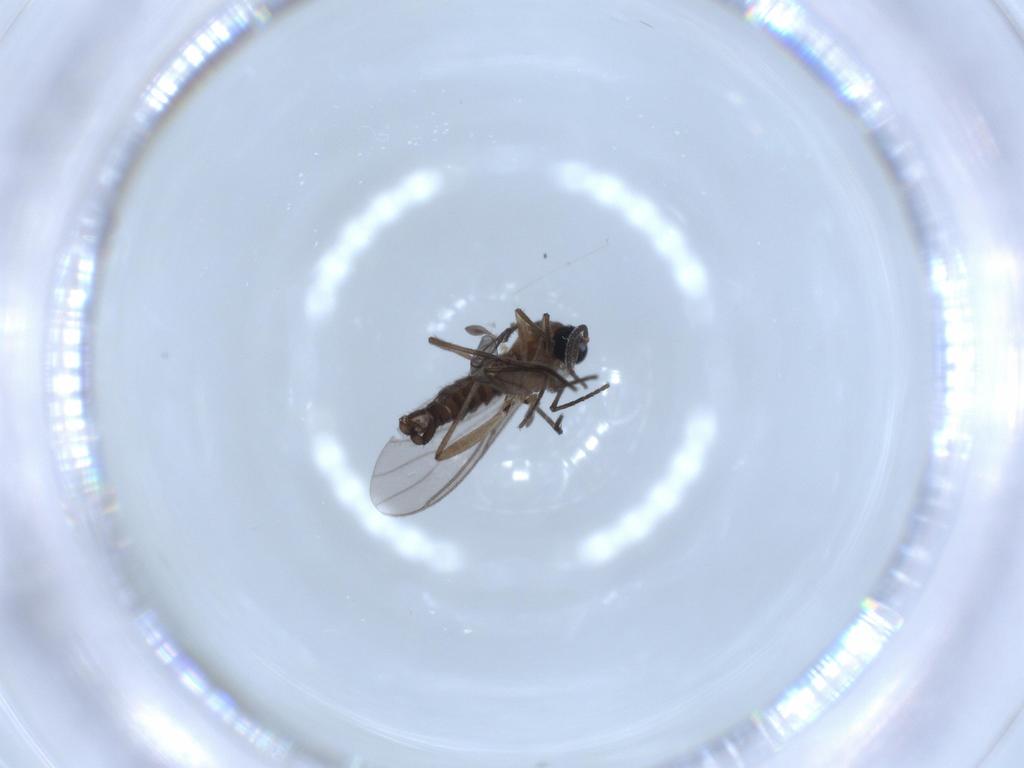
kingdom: Animalia
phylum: Arthropoda
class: Insecta
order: Diptera
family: Sciaridae
